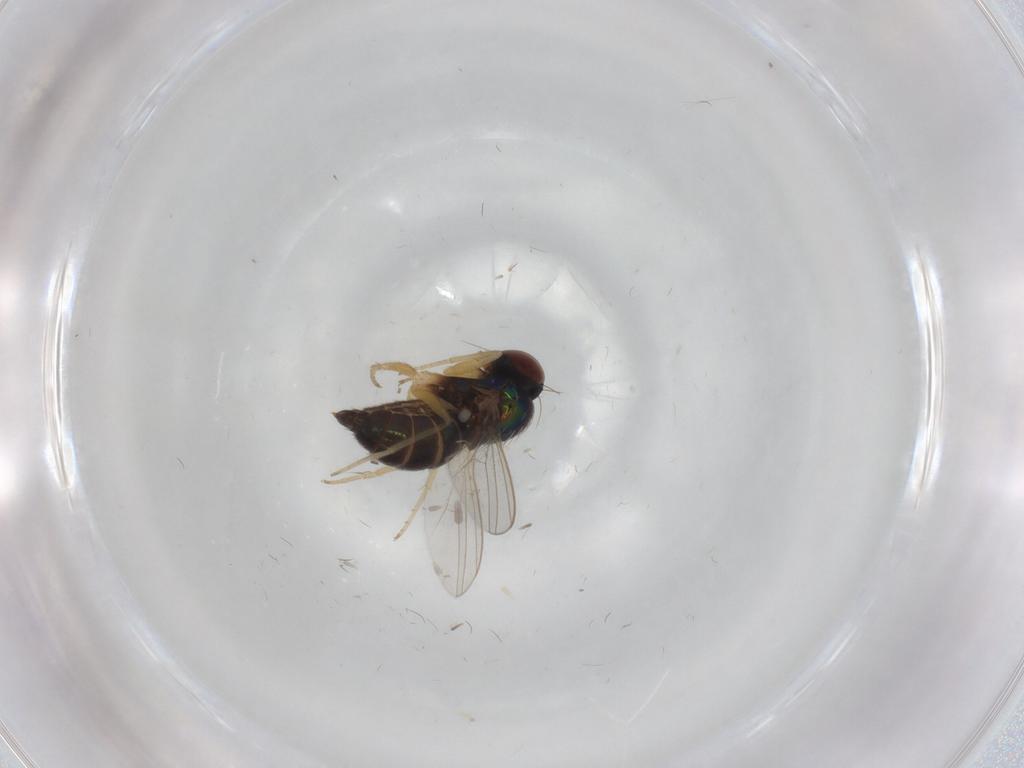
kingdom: Animalia
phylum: Arthropoda
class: Insecta
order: Diptera
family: Dolichopodidae
